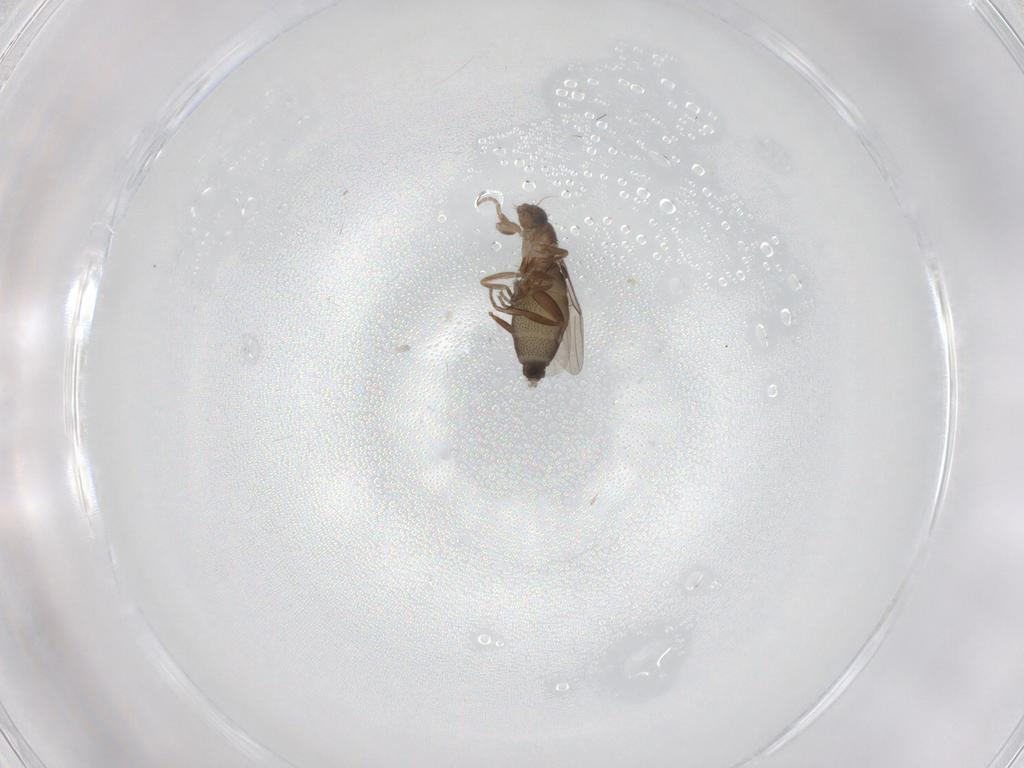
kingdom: Animalia
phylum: Arthropoda
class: Insecta
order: Diptera
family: Phoridae
